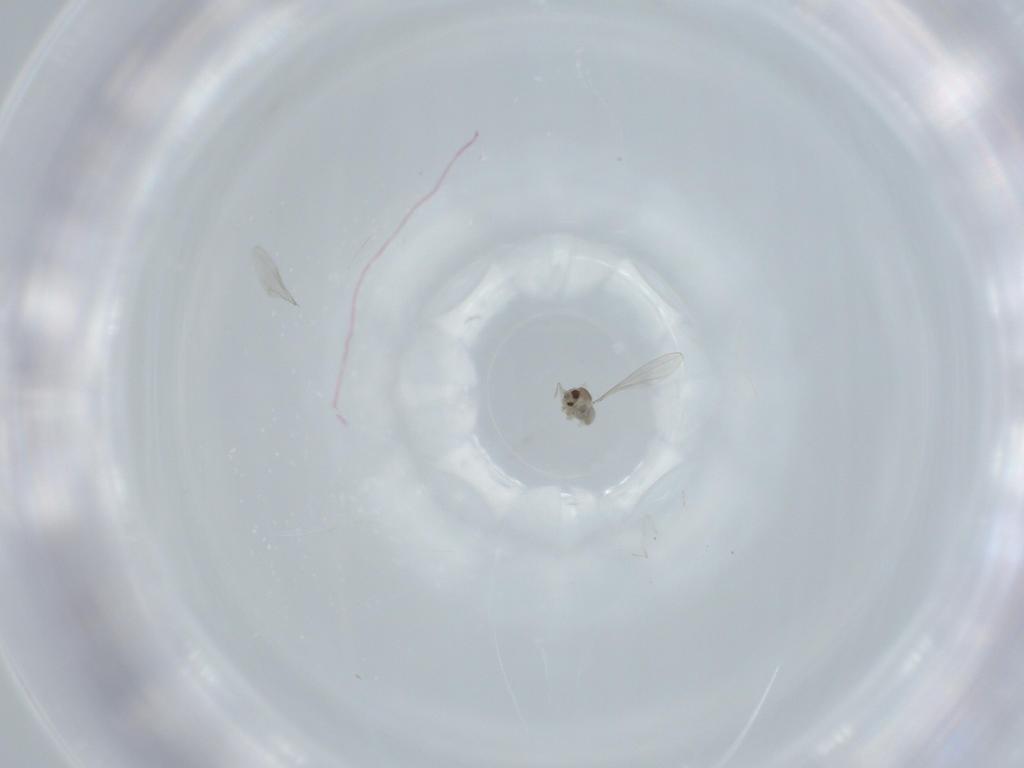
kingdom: Animalia
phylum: Arthropoda
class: Insecta
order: Diptera
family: Cecidomyiidae
